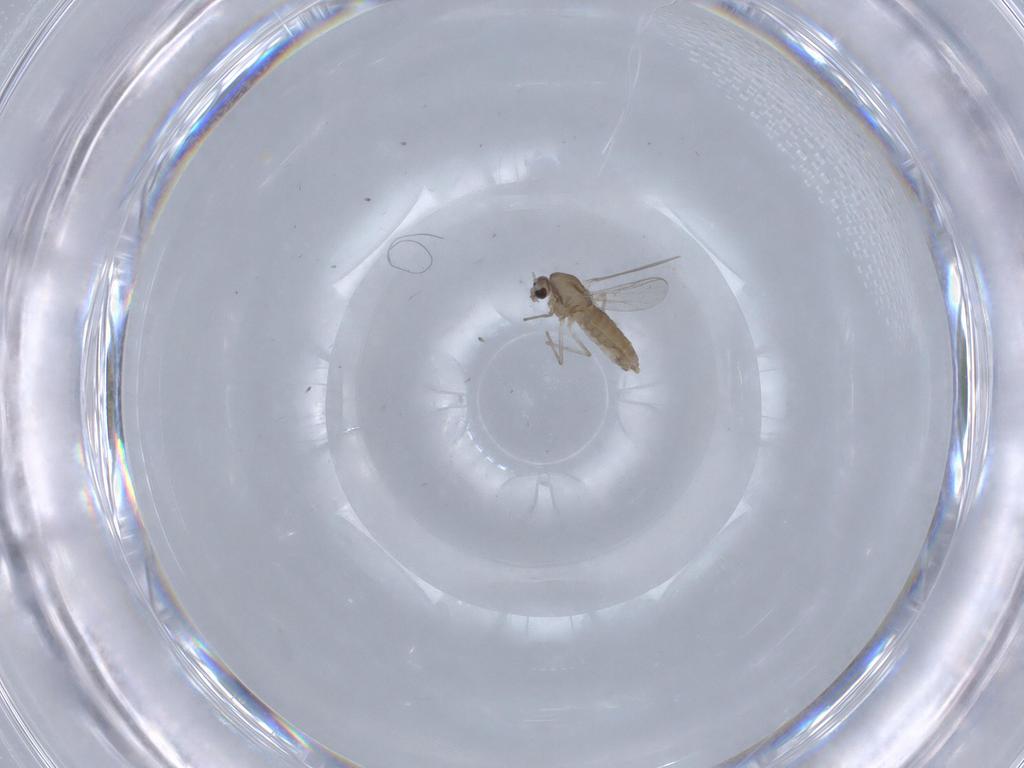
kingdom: Animalia
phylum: Arthropoda
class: Insecta
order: Diptera
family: Chironomidae
